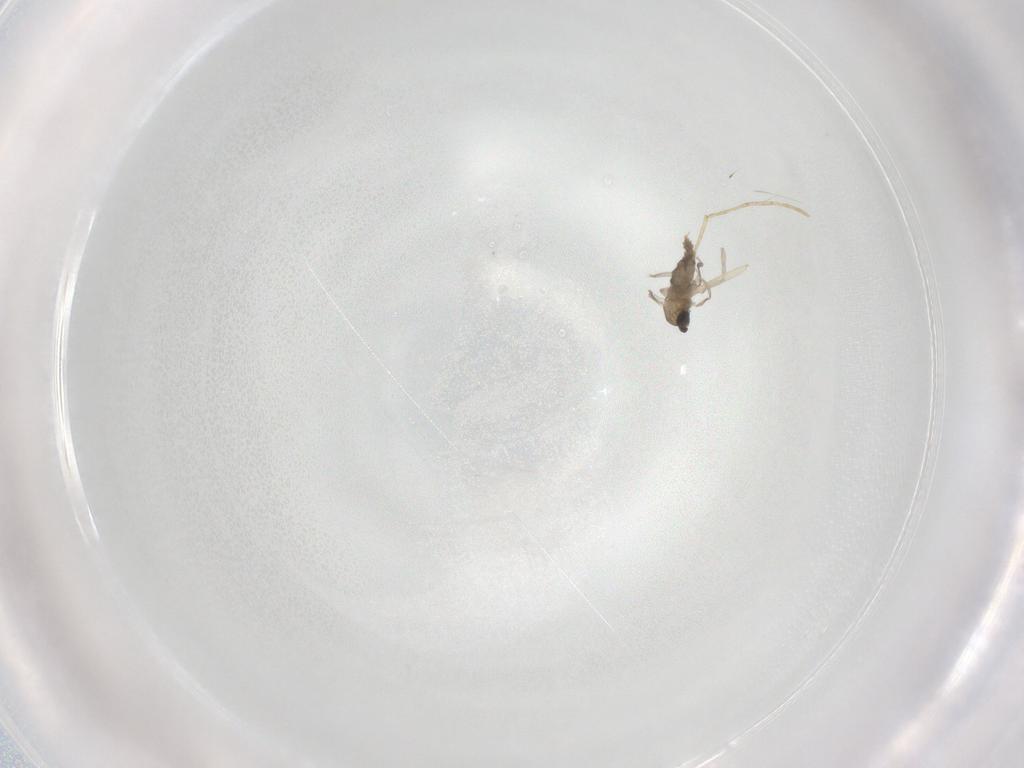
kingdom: Animalia
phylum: Arthropoda
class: Insecta
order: Diptera
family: Cecidomyiidae
